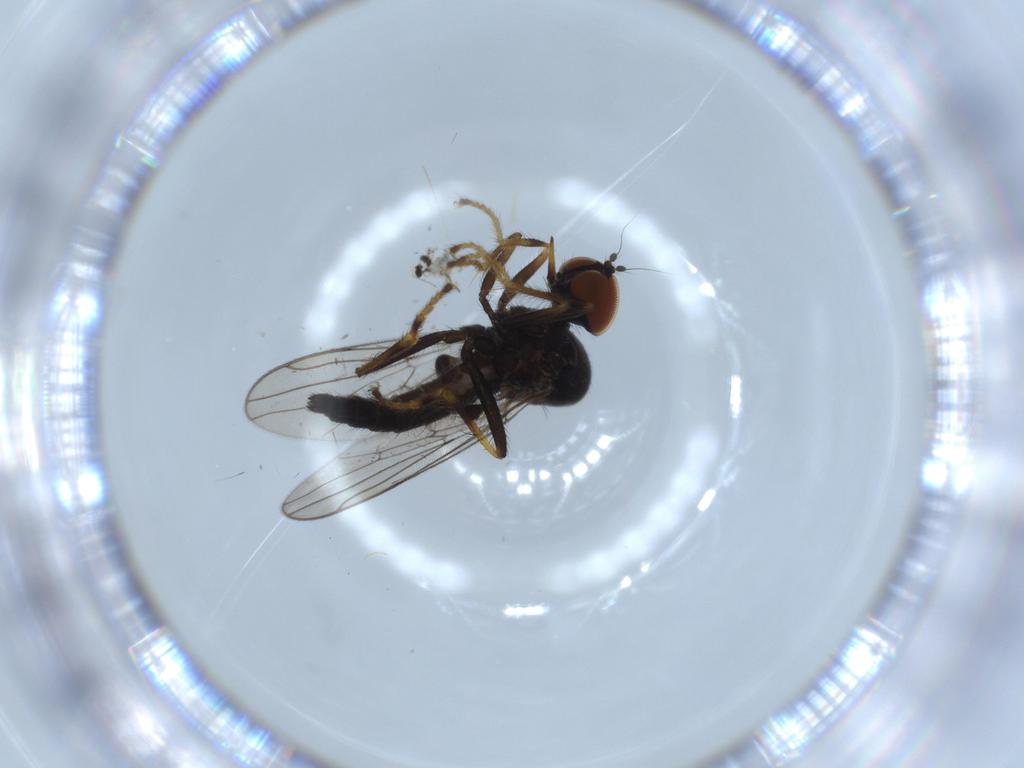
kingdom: Animalia
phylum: Arthropoda
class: Insecta
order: Diptera
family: Hybotidae
